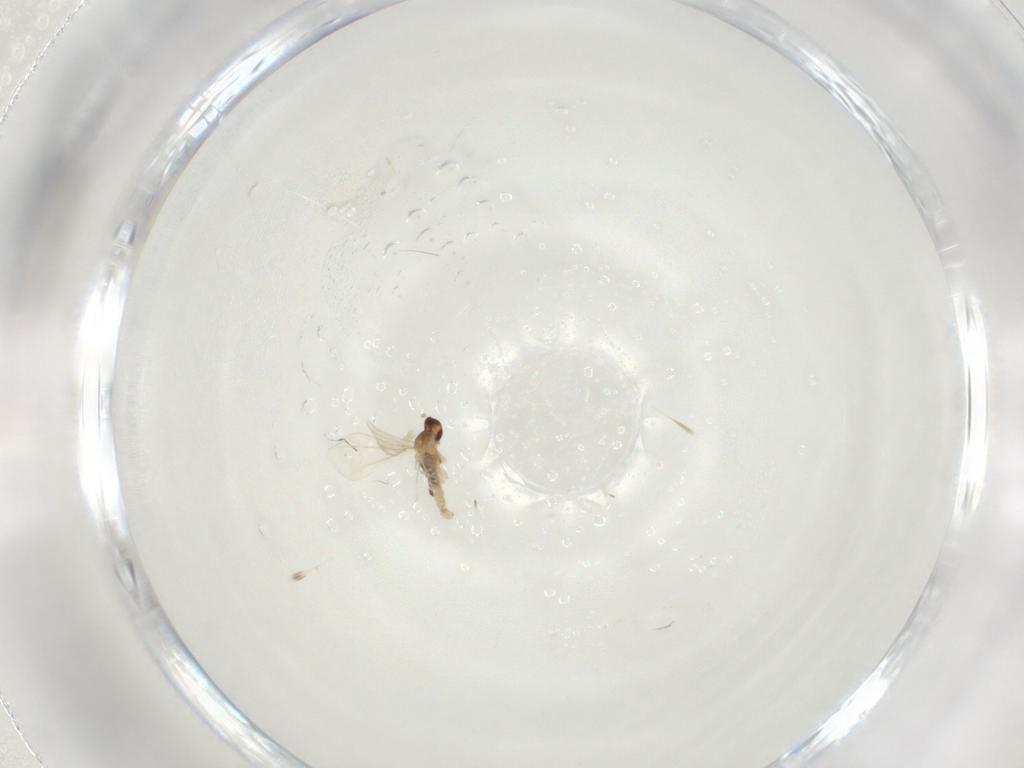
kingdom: Animalia
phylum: Arthropoda
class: Insecta
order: Diptera
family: Cecidomyiidae
